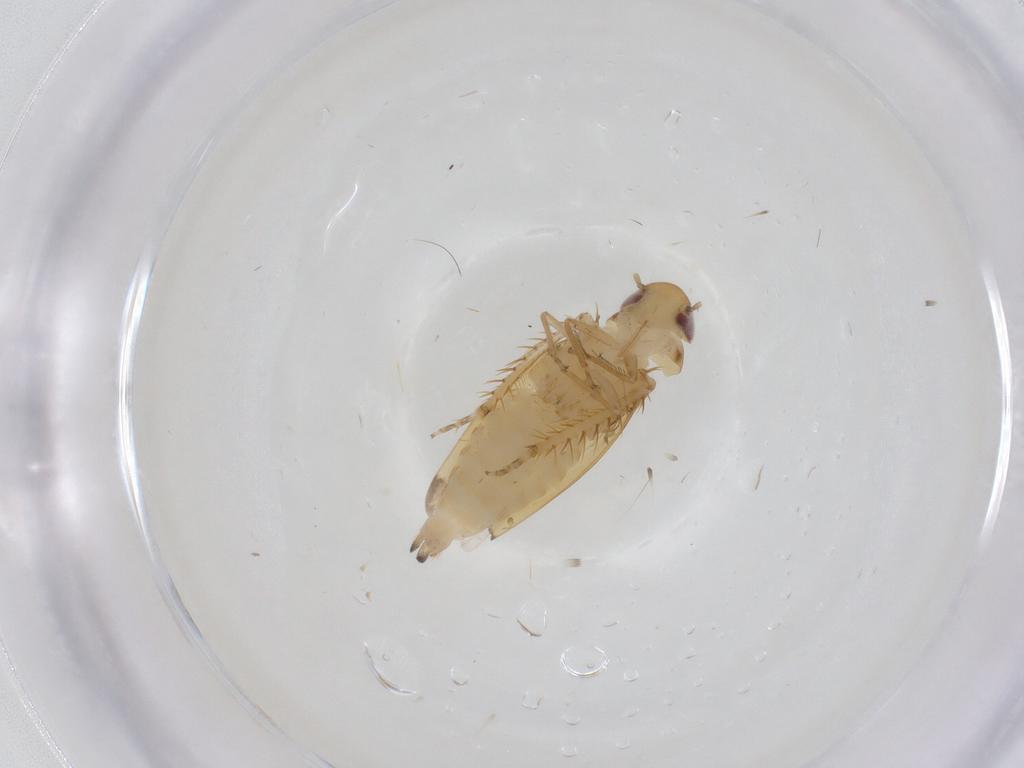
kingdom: Animalia
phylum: Arthropoda
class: Insecta
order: Hemiptera
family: Cicadellidae
